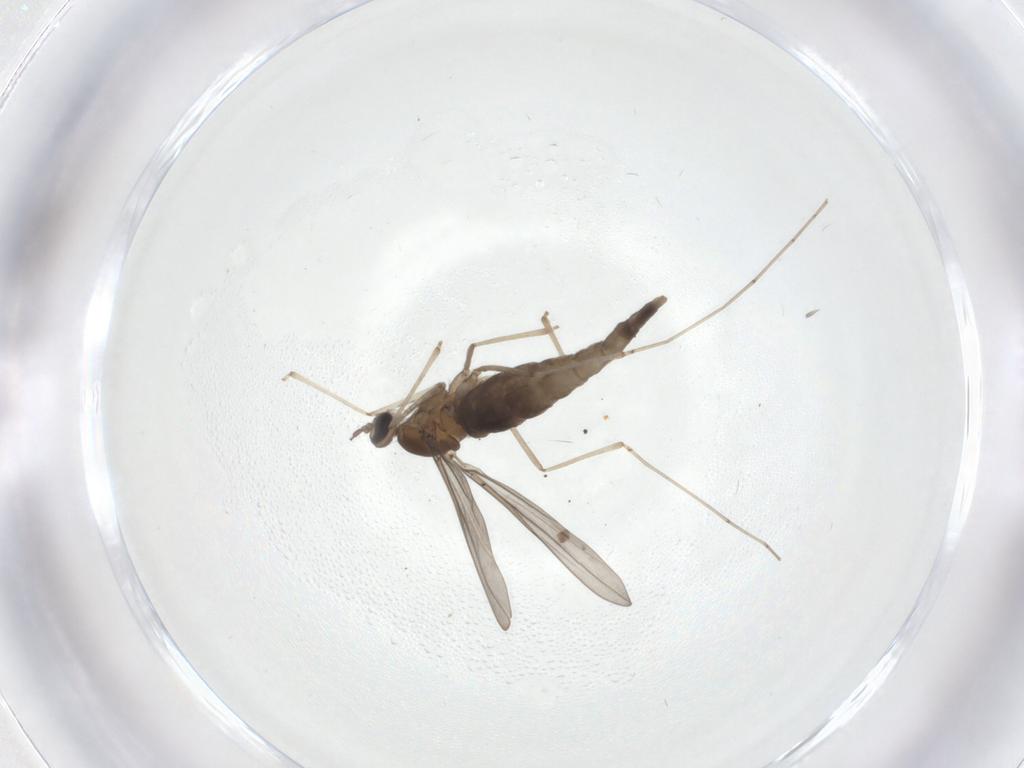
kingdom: Animalia
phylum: Arthropoda
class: Insecta
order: Diptera
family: Cecidomyiidae
